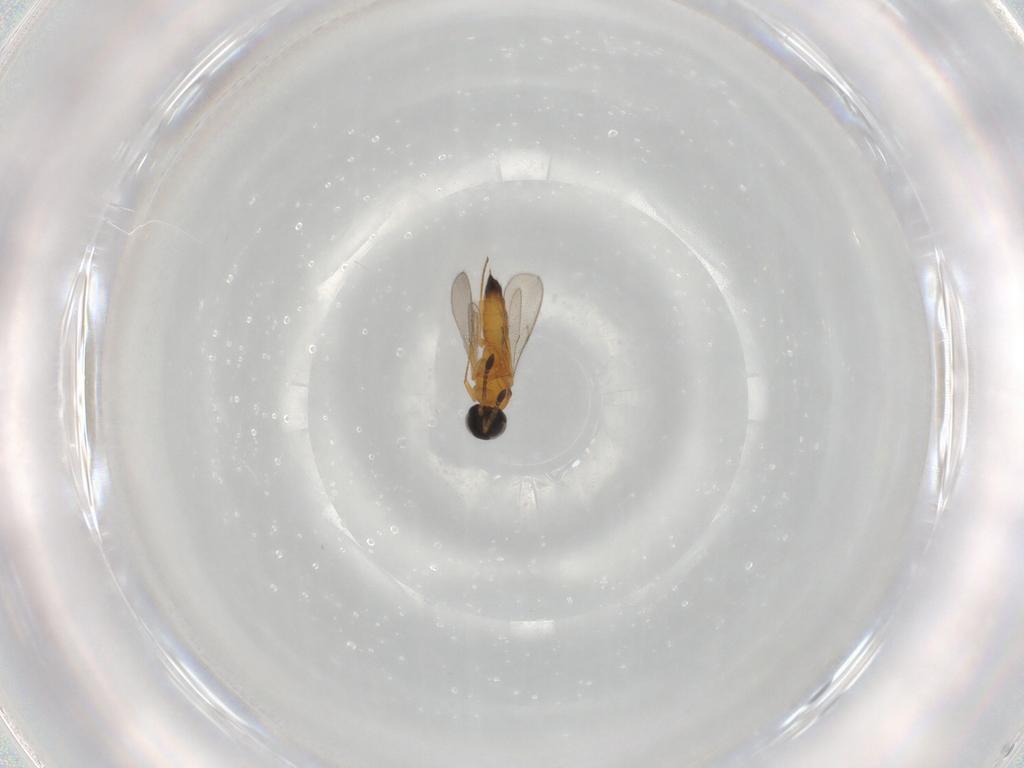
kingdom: Animalia
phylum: Arthropoda
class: Insecta
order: Hymenoptera
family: Scelionidae
